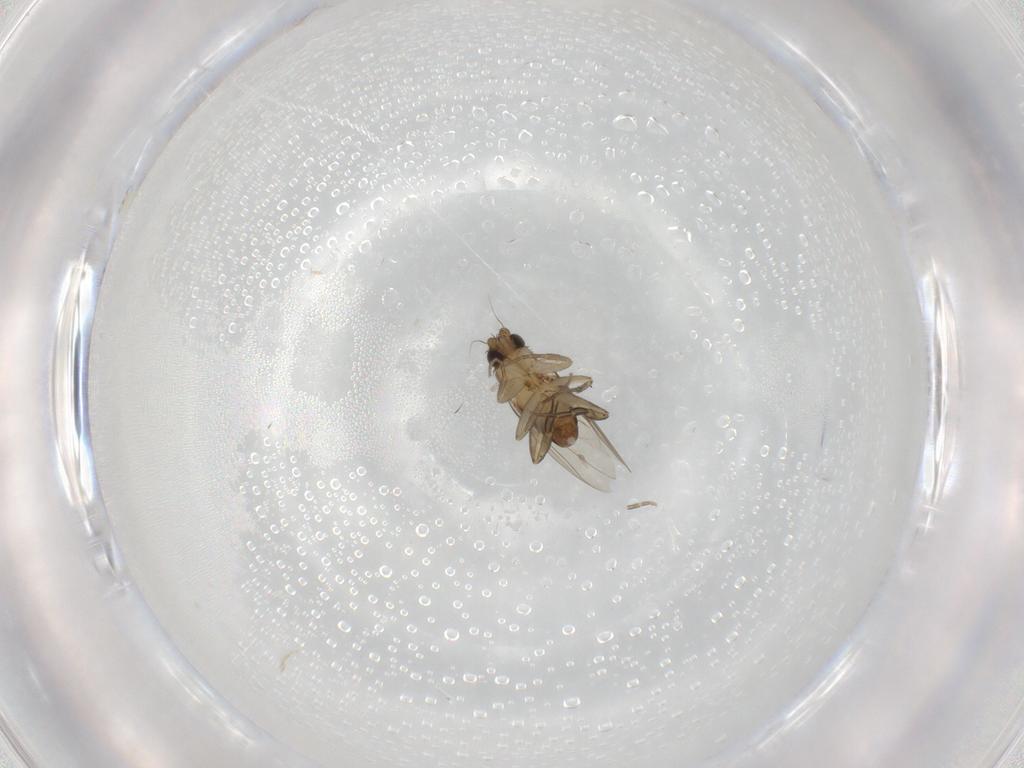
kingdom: Animalia
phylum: Arthropoda
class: Insecta
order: Diptera
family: Phoridae
